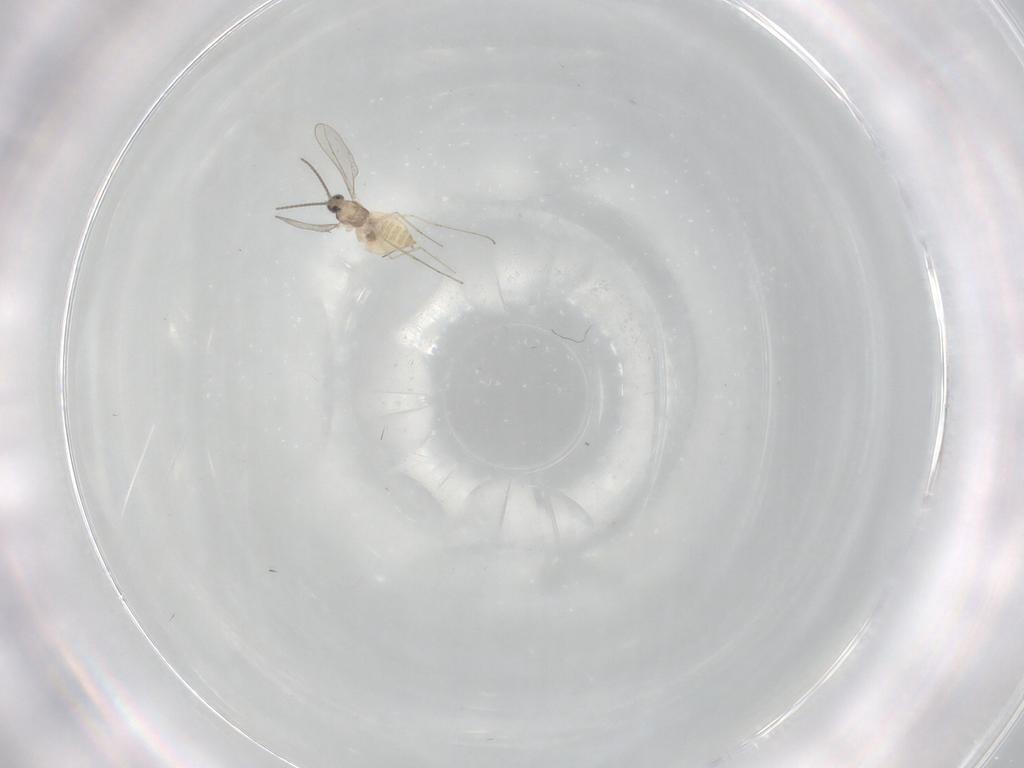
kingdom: Animalia
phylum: Arthropoda
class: Insecta
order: Diptera
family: Cecidomyiidae
